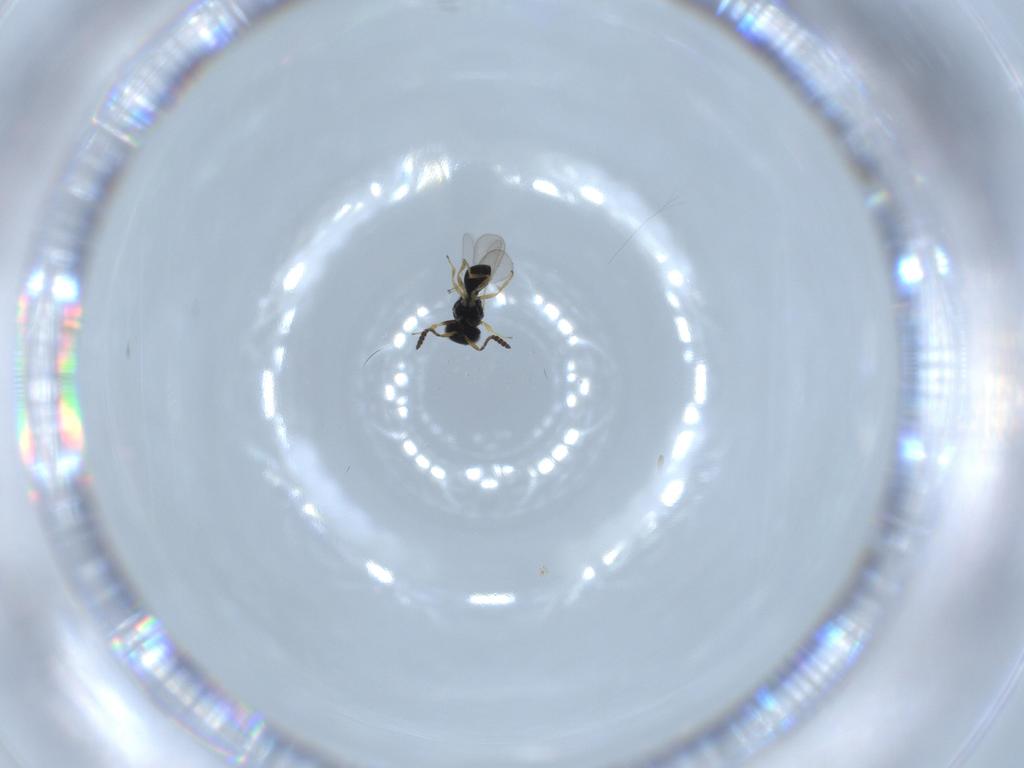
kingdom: Animalia
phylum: Arthropoda
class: Insecta
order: Hymenoptera
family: Scelionidae
